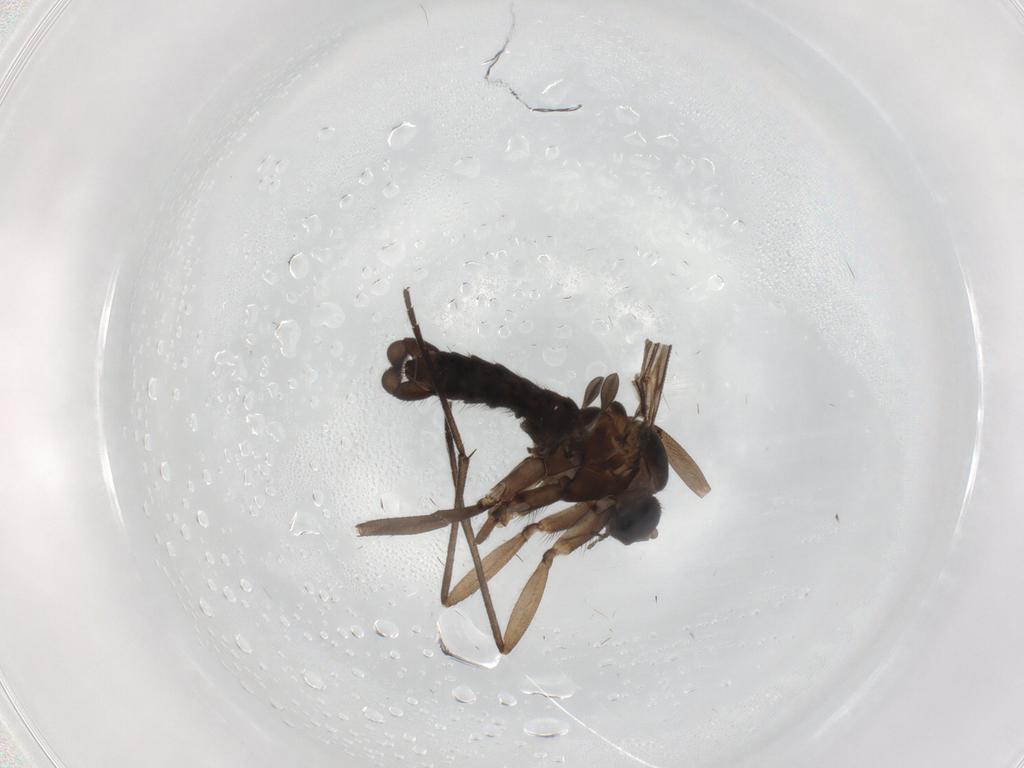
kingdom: Animalia
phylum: Arthropoda
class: Insecta
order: Diptera
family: Sciaridae
